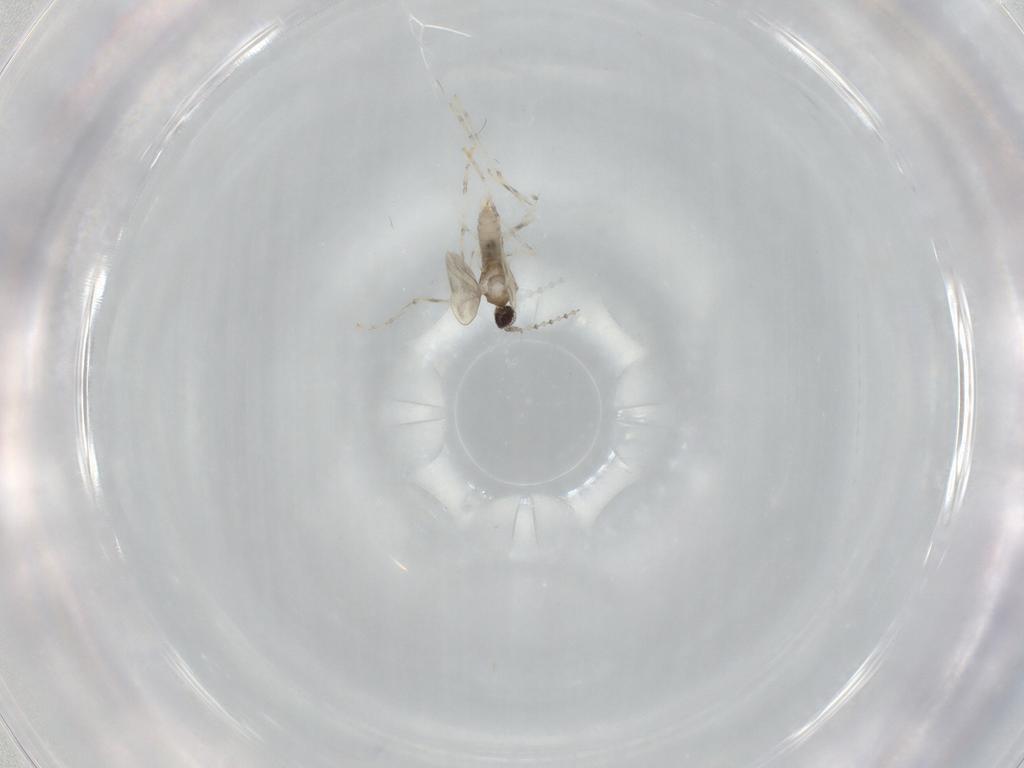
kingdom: Animalia
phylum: Arthropoda
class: Insecta
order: Diptera
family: Cecidomyiidae
